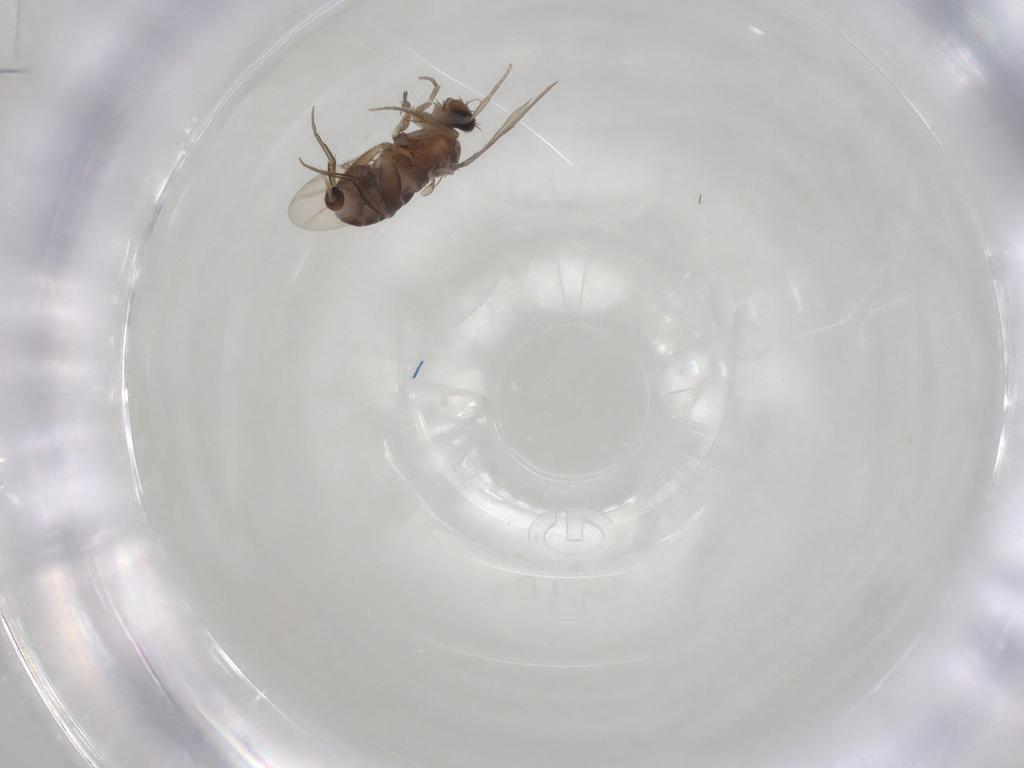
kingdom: Animalia
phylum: Arthropoda
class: Insecta
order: Diptera
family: Phoridae
